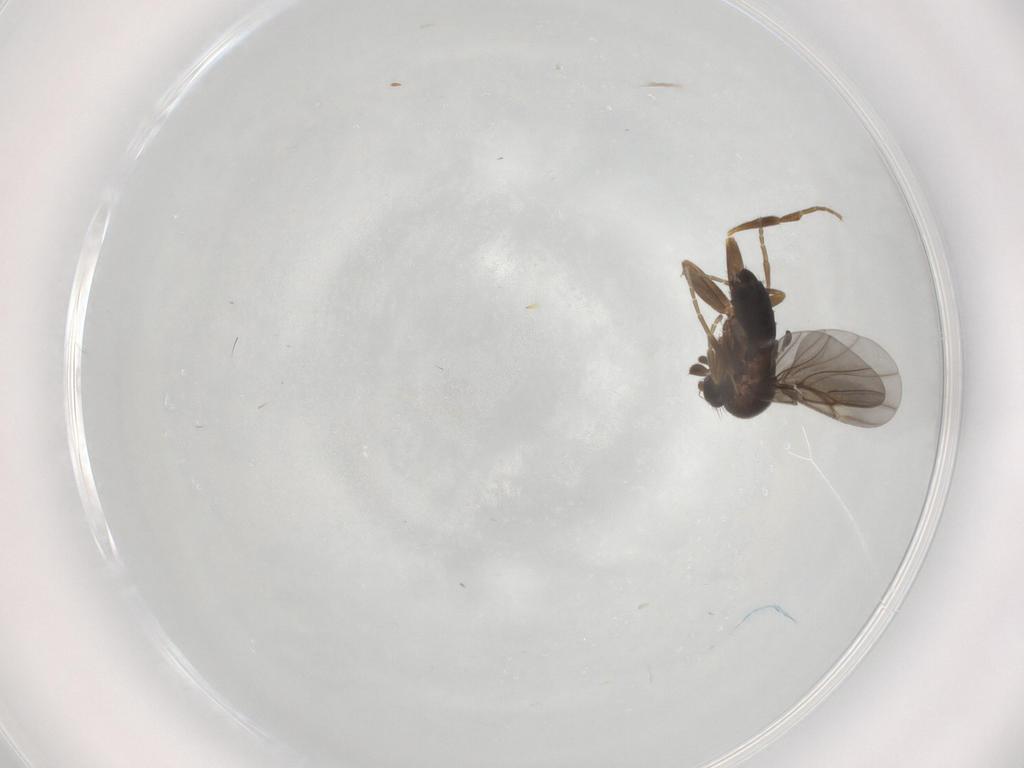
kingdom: Animalia
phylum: Arthropoda
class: Insecta
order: Diptera
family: Phoridae
